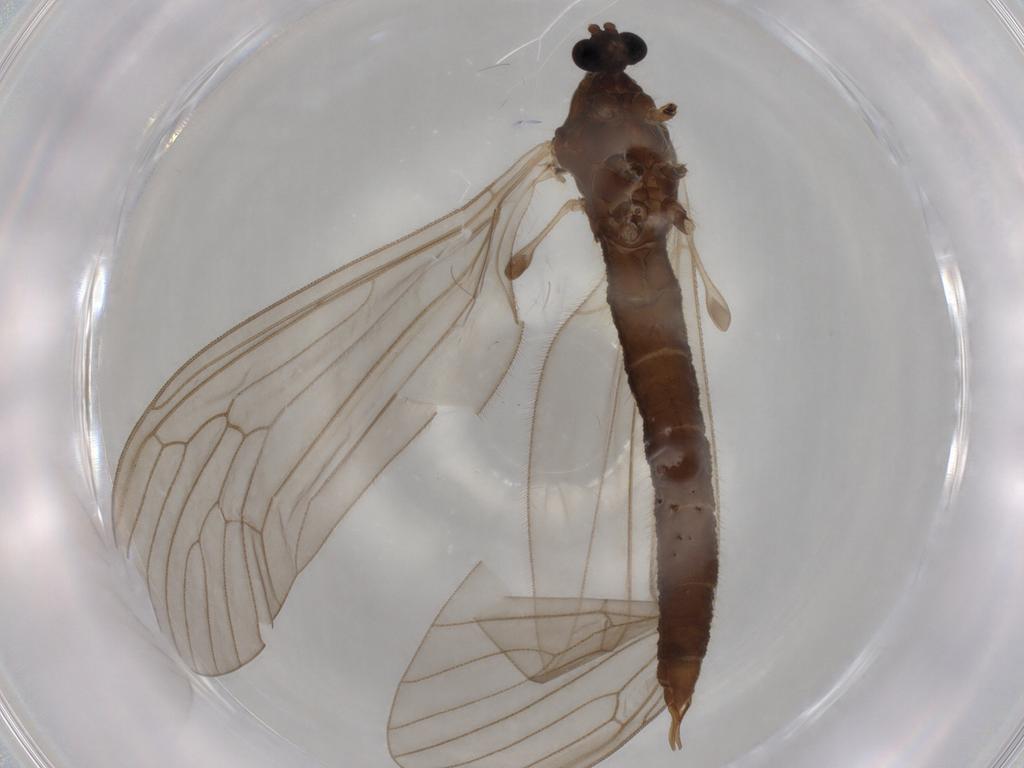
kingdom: Animalia
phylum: Arthropoda
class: Insecta
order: Diptera
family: Trichoceridae
